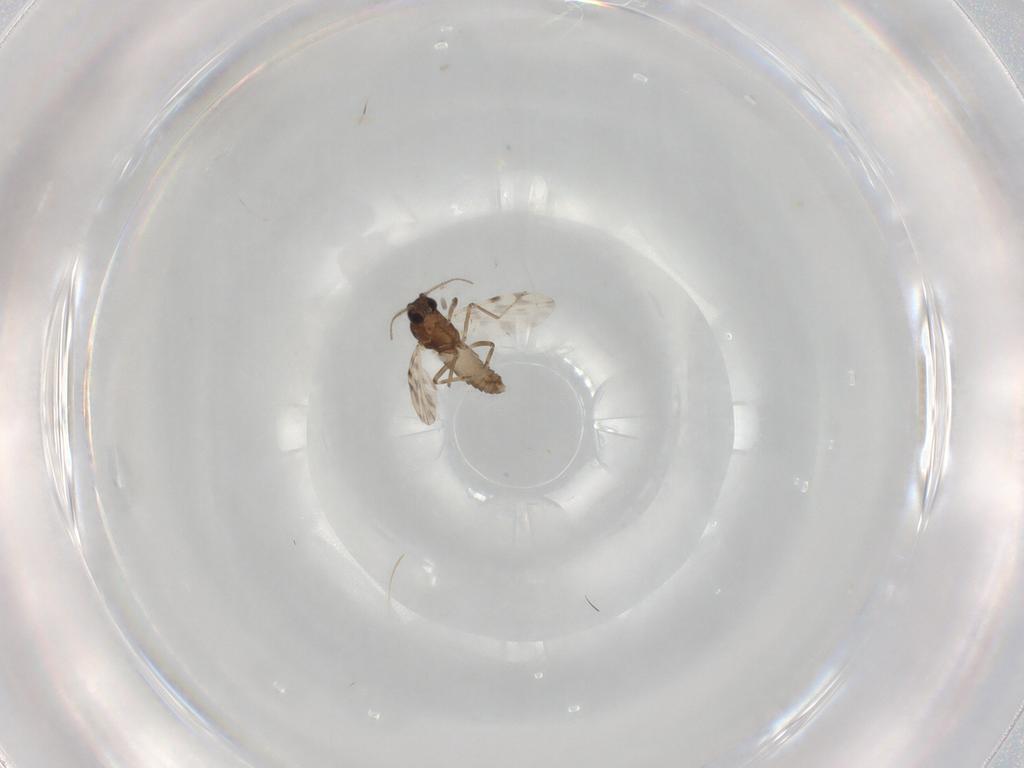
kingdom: Animalia
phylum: Arthropoda
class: Insecta
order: Diptera
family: Ceratopogonidae
